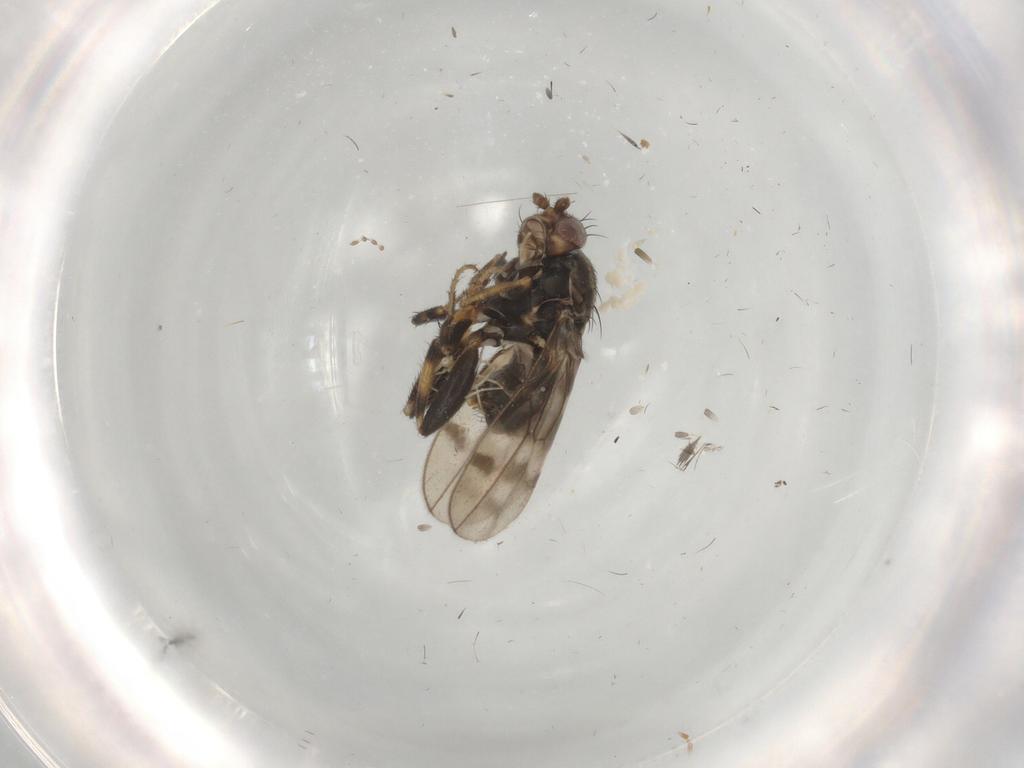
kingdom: Animalia
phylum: Arthropoda
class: Insecta
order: Diptera
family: Sphaeroceridae
